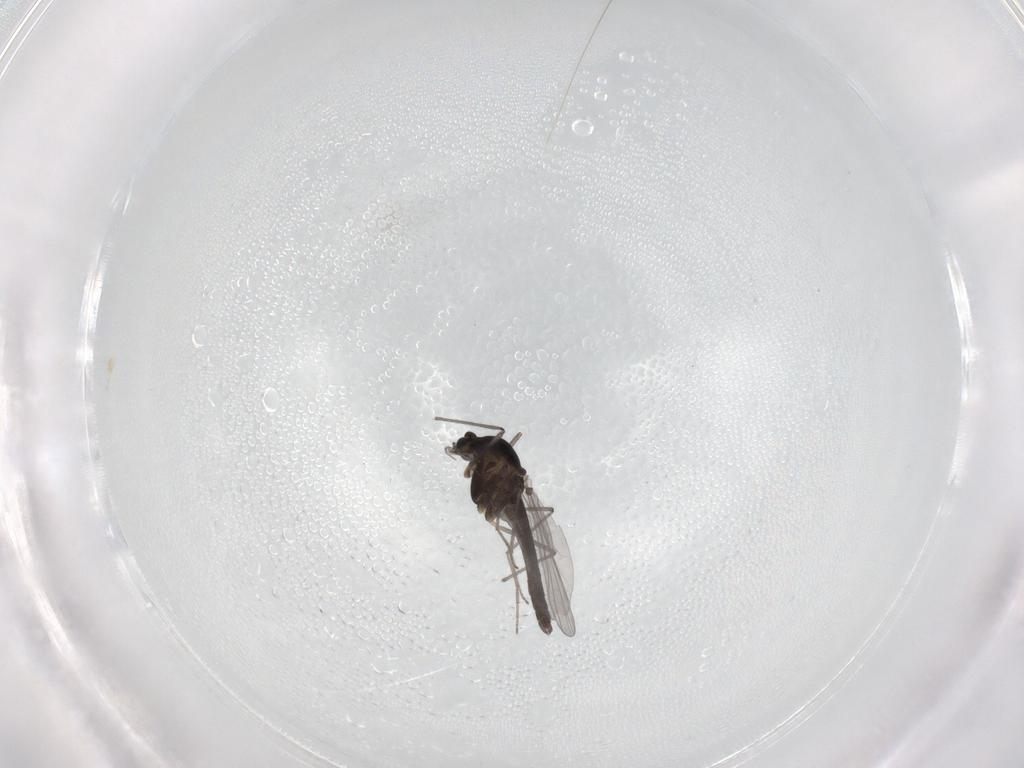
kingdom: Animalia
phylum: Arthropoda
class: Insecta
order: Diptera
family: Chironomidae
